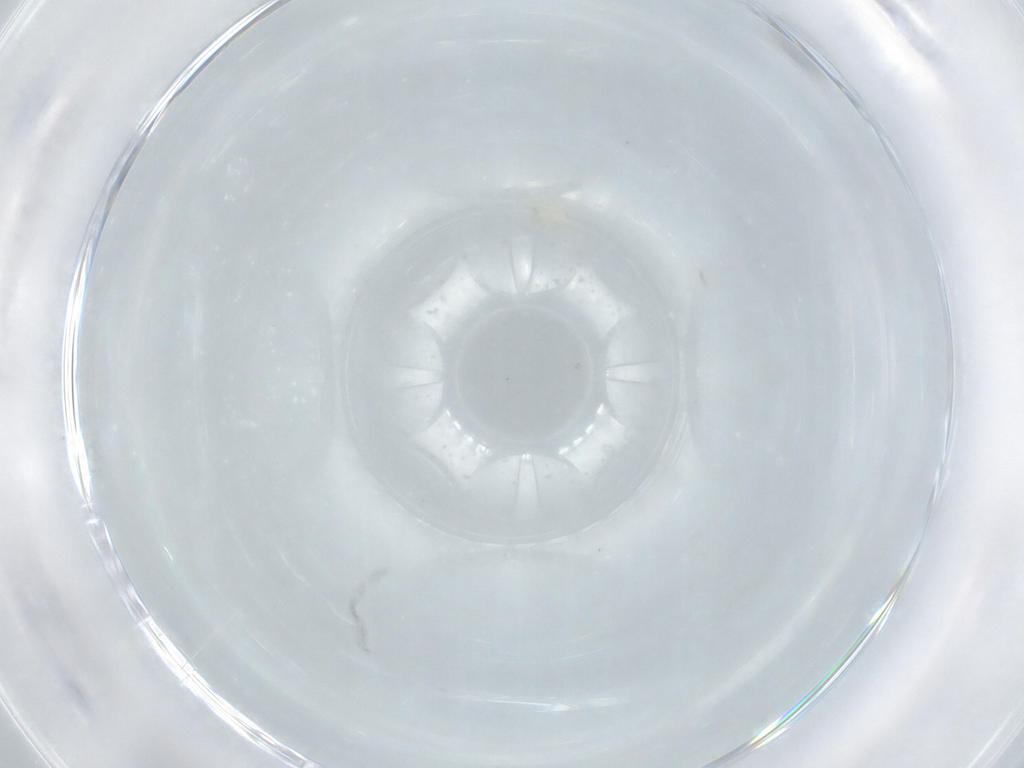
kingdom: Animalia
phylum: Arthropoda
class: Insecta
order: Diptera
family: Chloropidae
